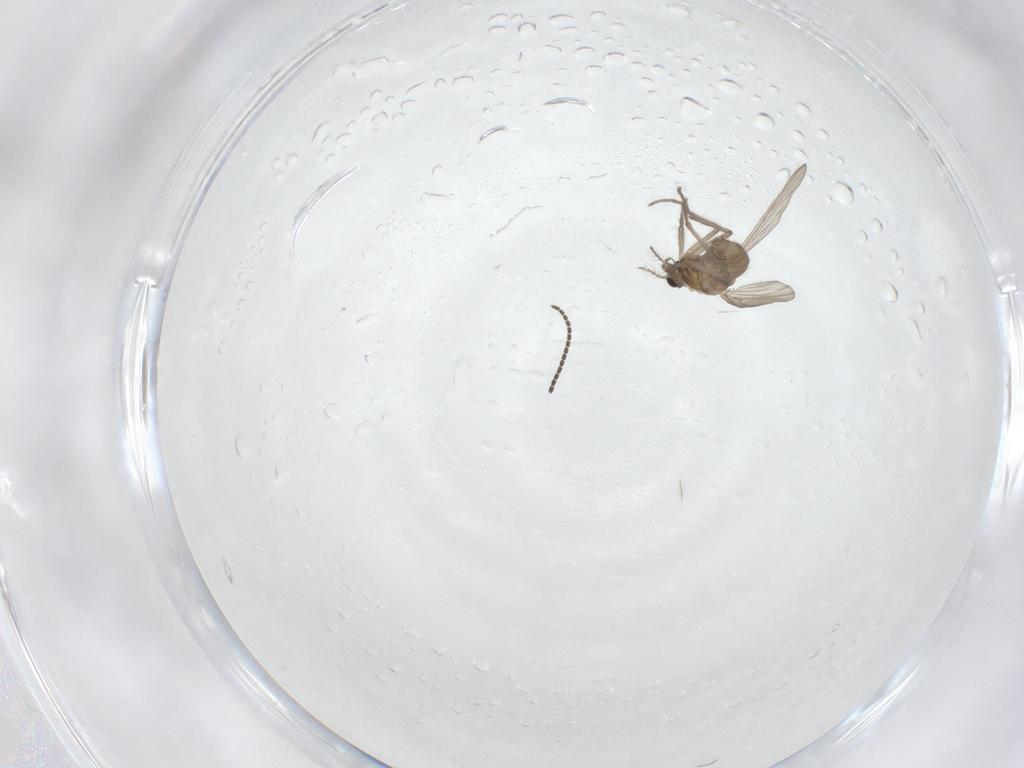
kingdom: Animalia
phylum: Arthropoda
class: Insecta
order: Diptera
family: Chironomidae
